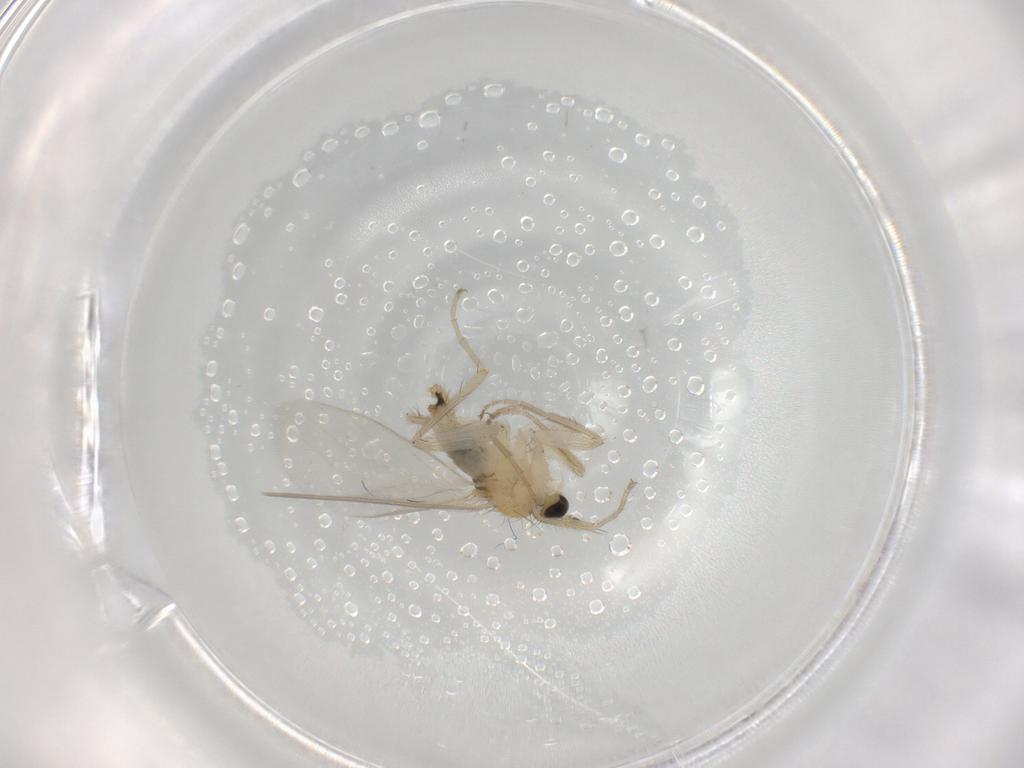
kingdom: Animalia
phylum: Arthropoda
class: Insecta
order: Diptera
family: Hybotidae
